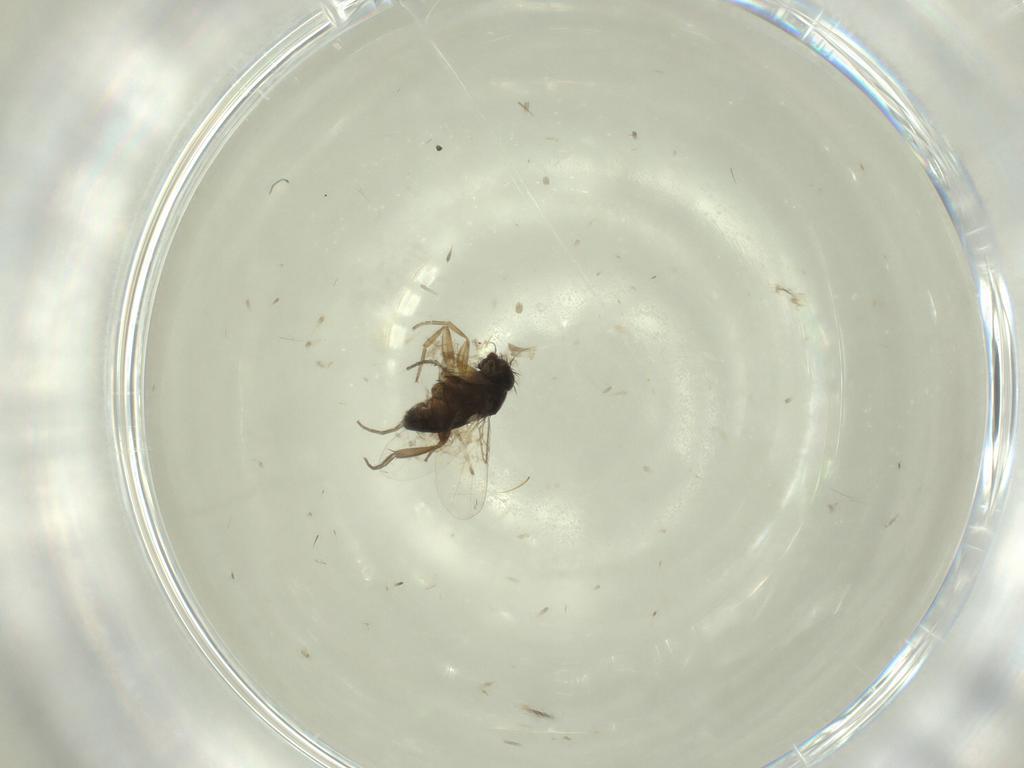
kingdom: Animalia
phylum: Arthropoda
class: Insecta
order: Diptera
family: Phoridae
